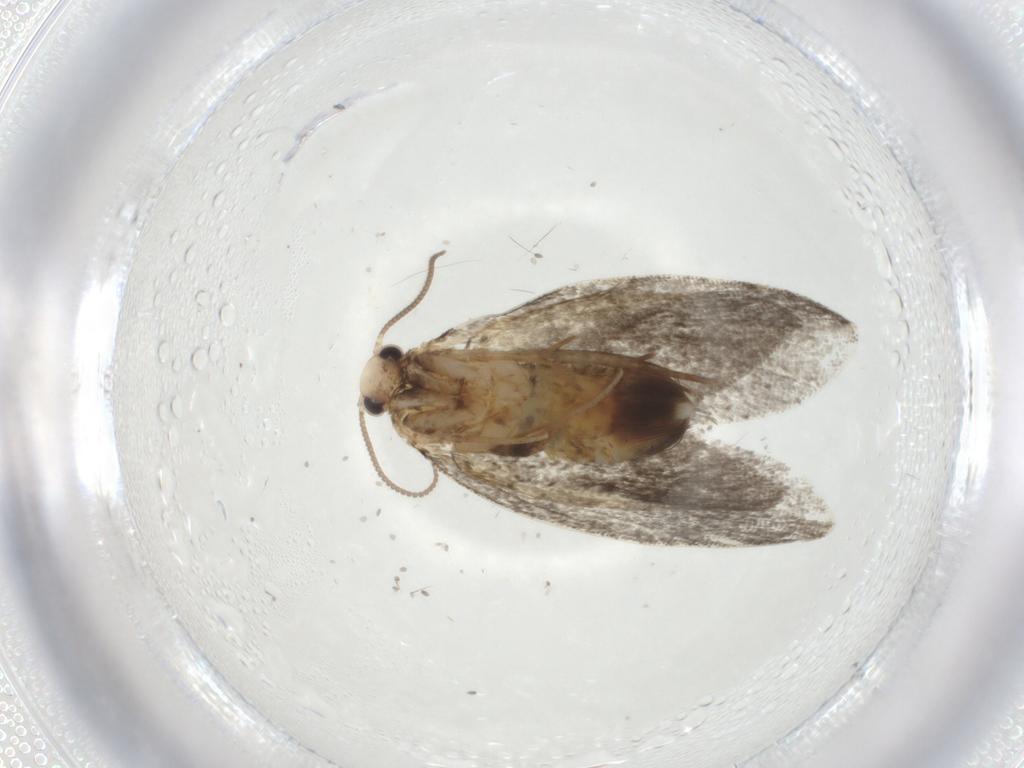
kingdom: Animalia
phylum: Arthropoda
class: Insecta
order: Lepidoptera
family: Psychidae
